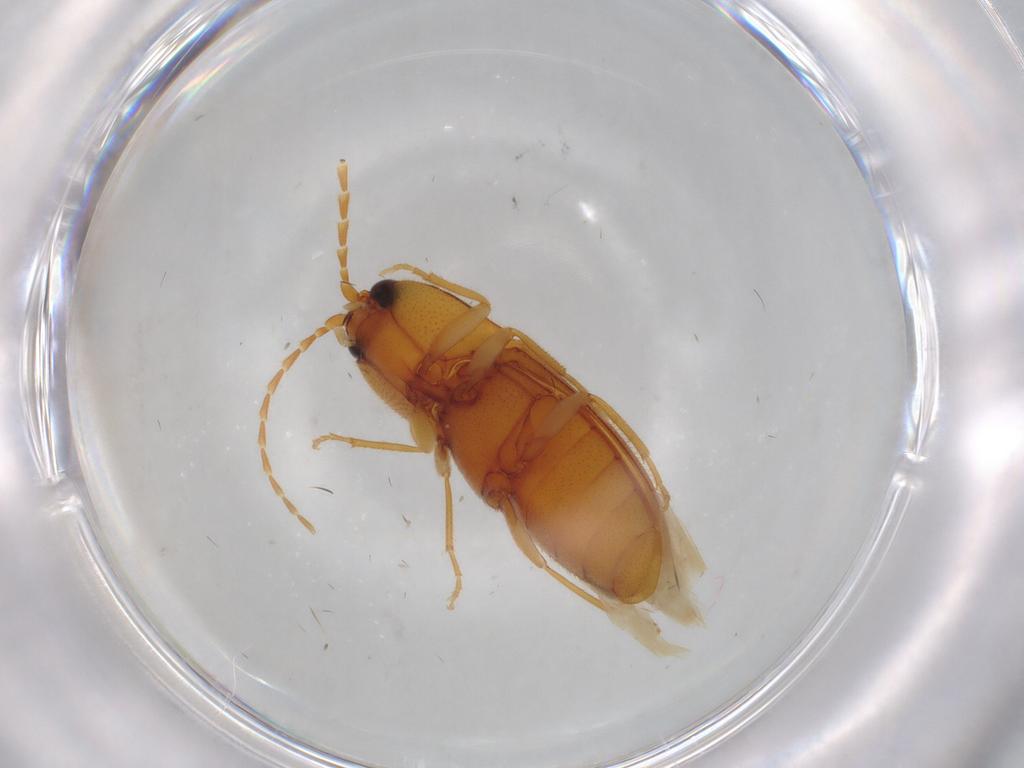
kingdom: Animalia
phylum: Arthropoda
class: Insecta
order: Coleoptera
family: Elateridae
